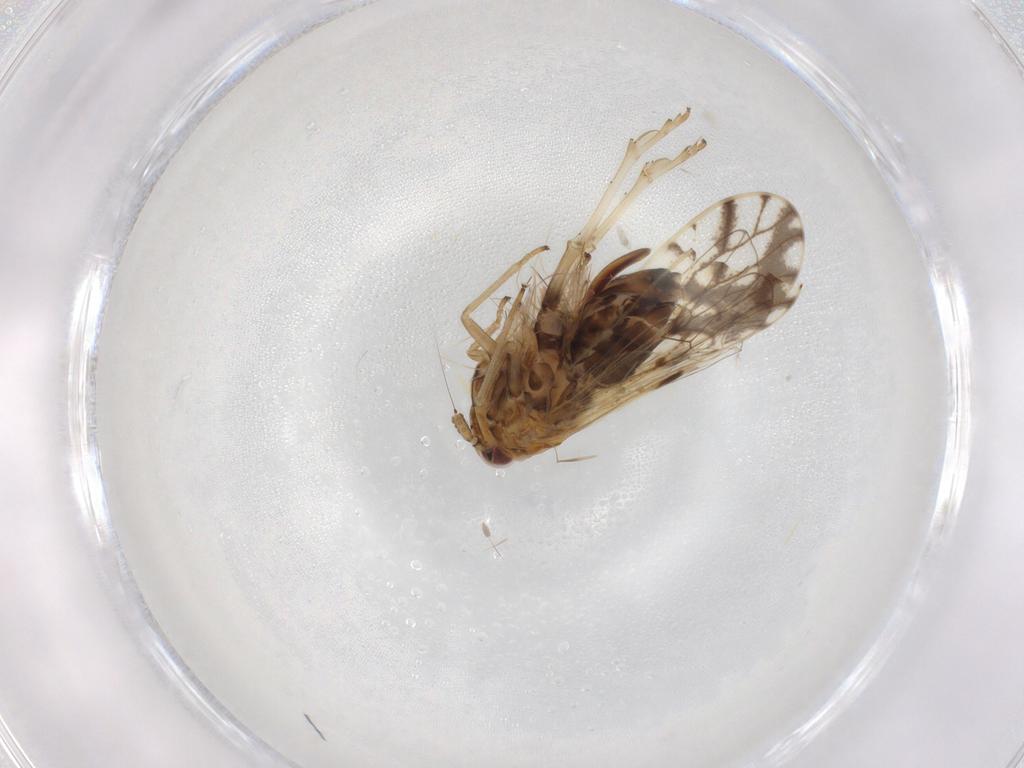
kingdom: Animalia
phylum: Arthropoda
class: Insecta
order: Hemiptera
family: Delphacidae
